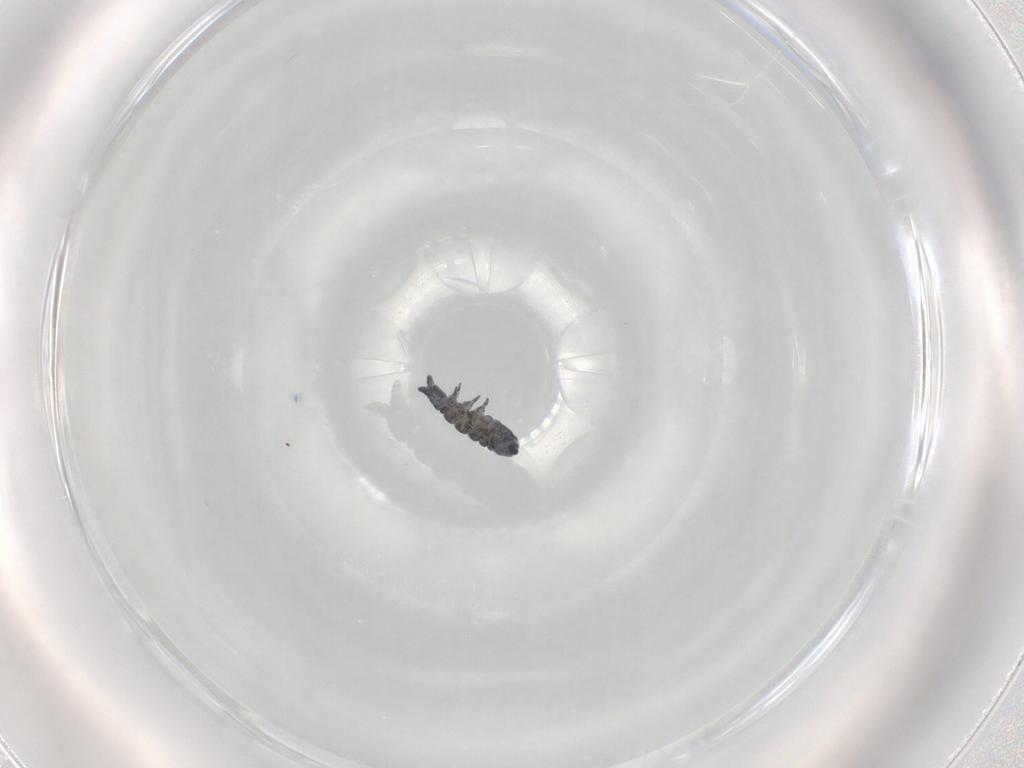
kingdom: Animalia
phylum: Arthropoda
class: Collembola
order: Poduromorpha
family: Neanuridae
